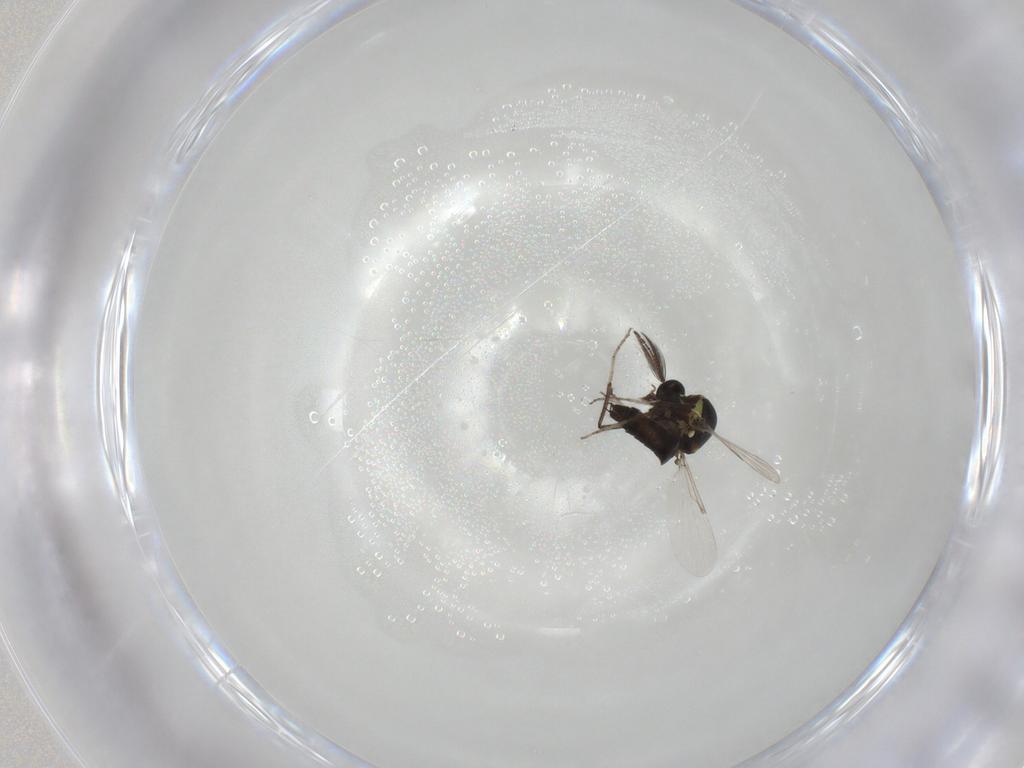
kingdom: Animalia
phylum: Arthropoda
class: Insecta
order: Diptera
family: Ceratopogonidae
